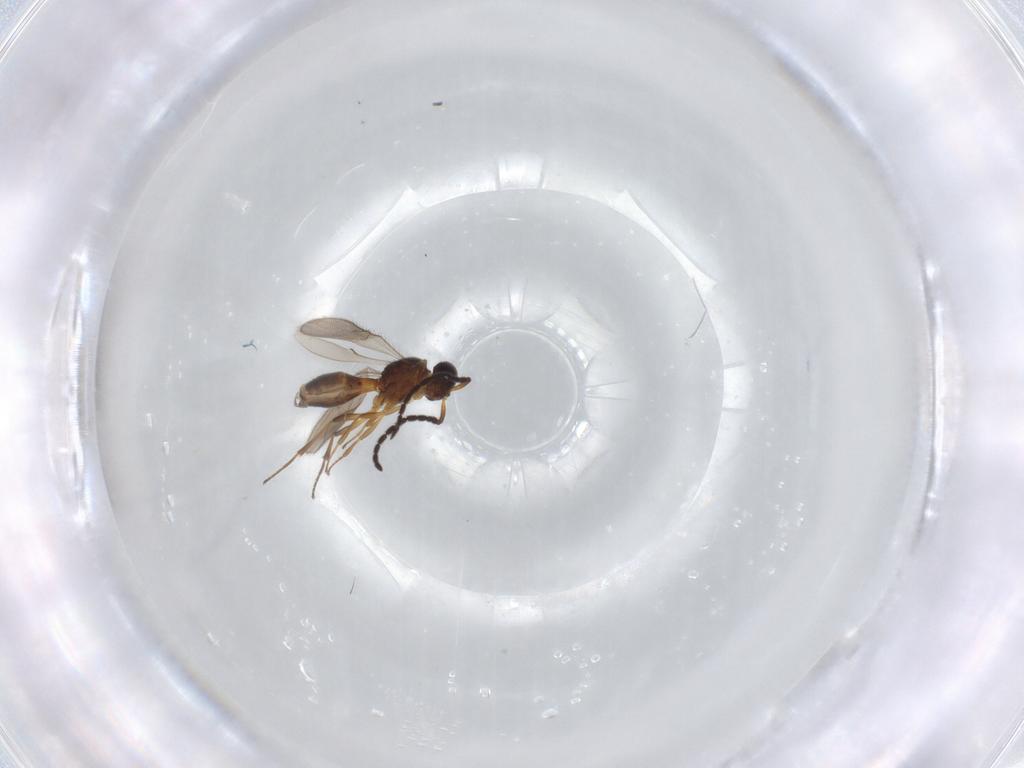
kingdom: Animalia
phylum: Arthropoda
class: Insecta
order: Hymenoptera
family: Scelionidae
